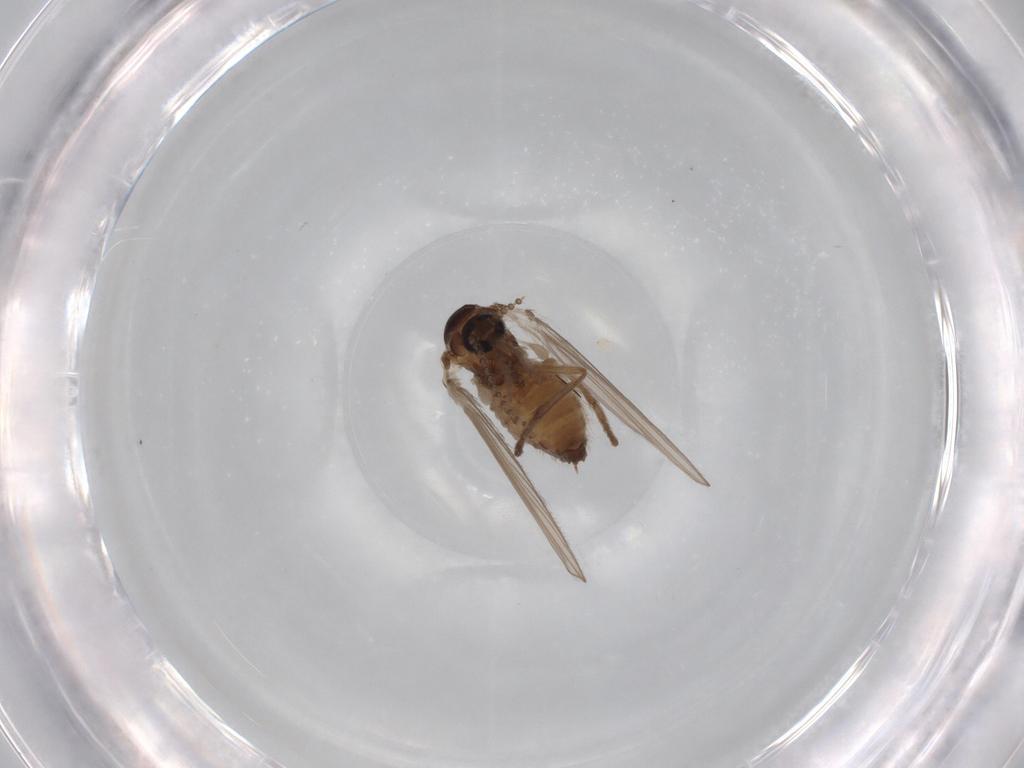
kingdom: Animalia
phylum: Arthropoda
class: Insecta
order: Diptera
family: Psychodidae
